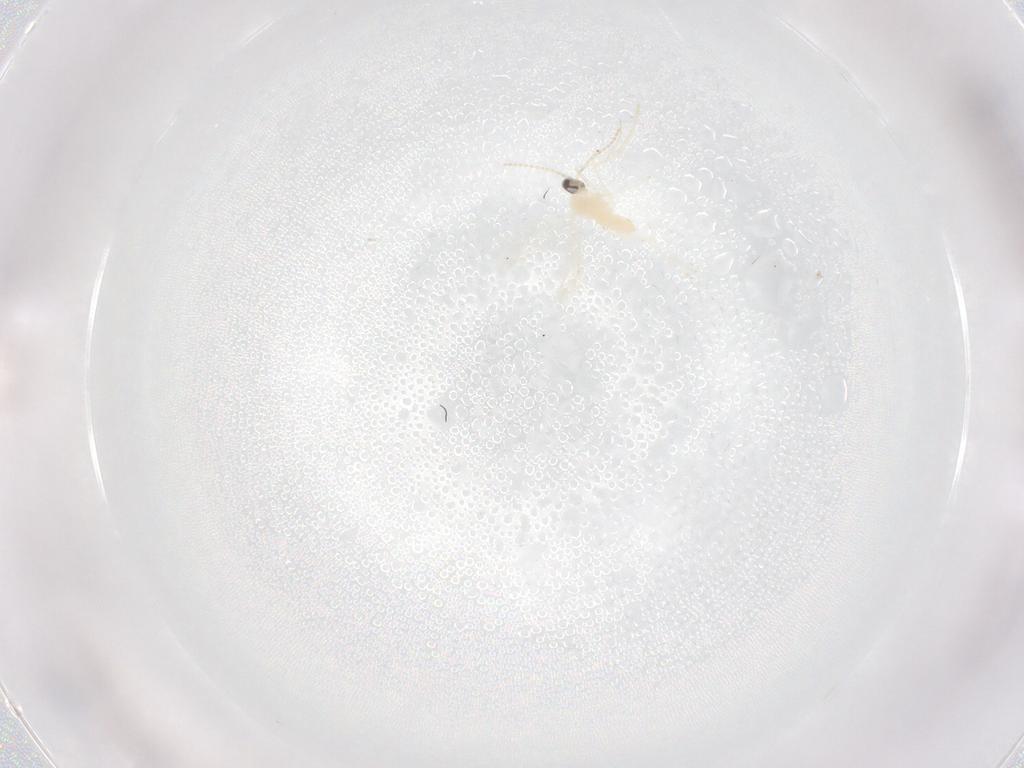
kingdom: Animalia
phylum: Arthropoda
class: Insecta
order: Diptera
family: Cecidomyiidae
